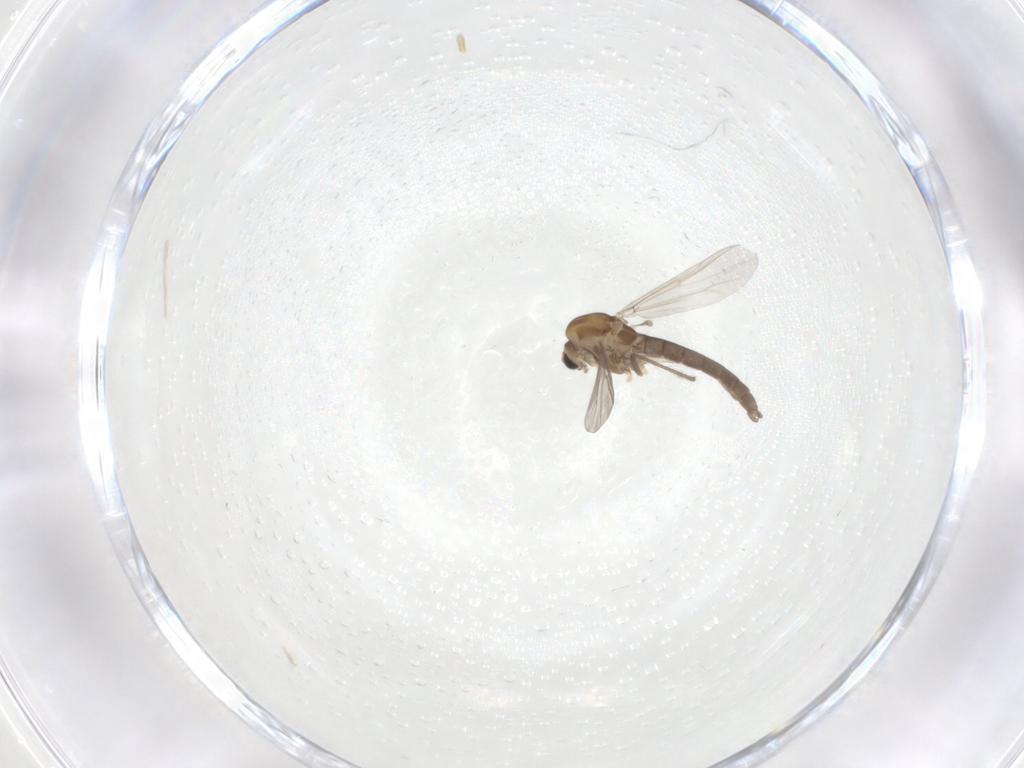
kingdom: Animalia
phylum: Arthropoda
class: Insecta
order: Diptera
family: Chironomidae
